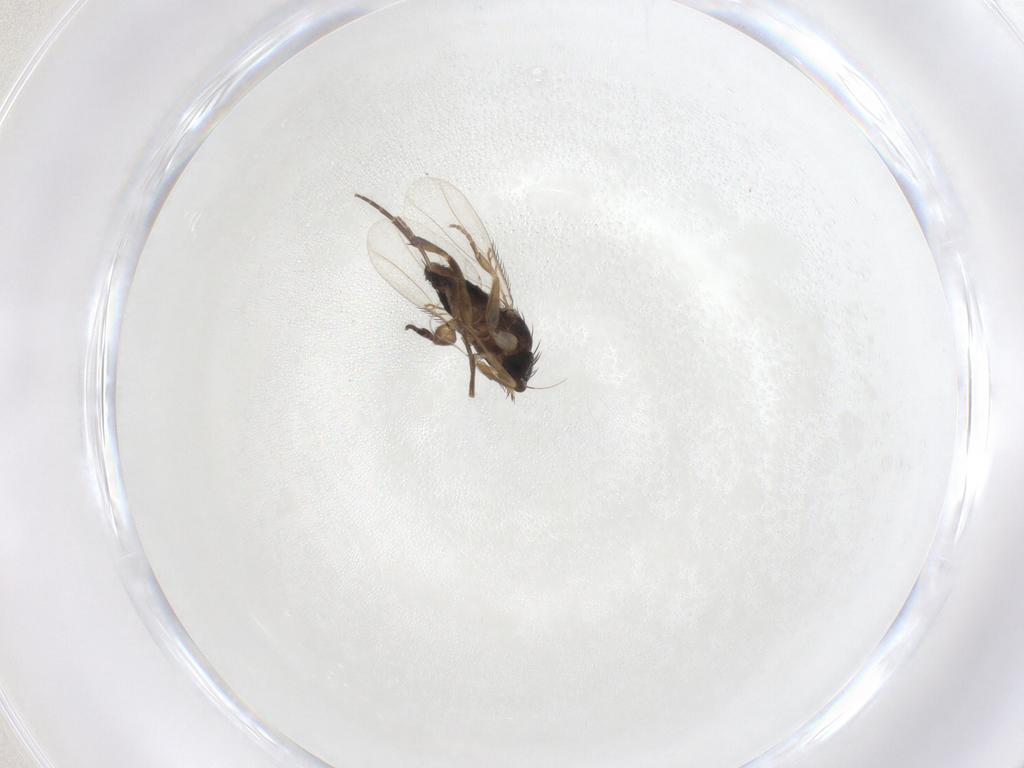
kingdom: Animalia
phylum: Arthropoda
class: Insecta
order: Diptera
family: Phoridae
